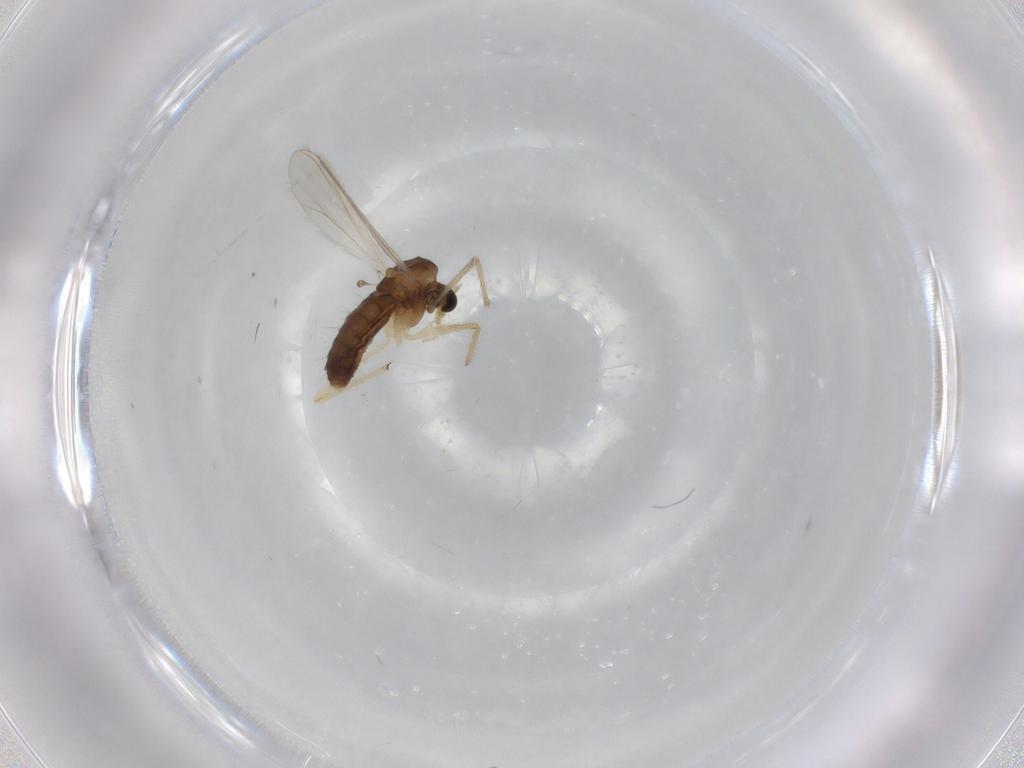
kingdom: Animalia
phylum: Arthropoda
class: Insecta
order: Diptera
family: Chironomidae
